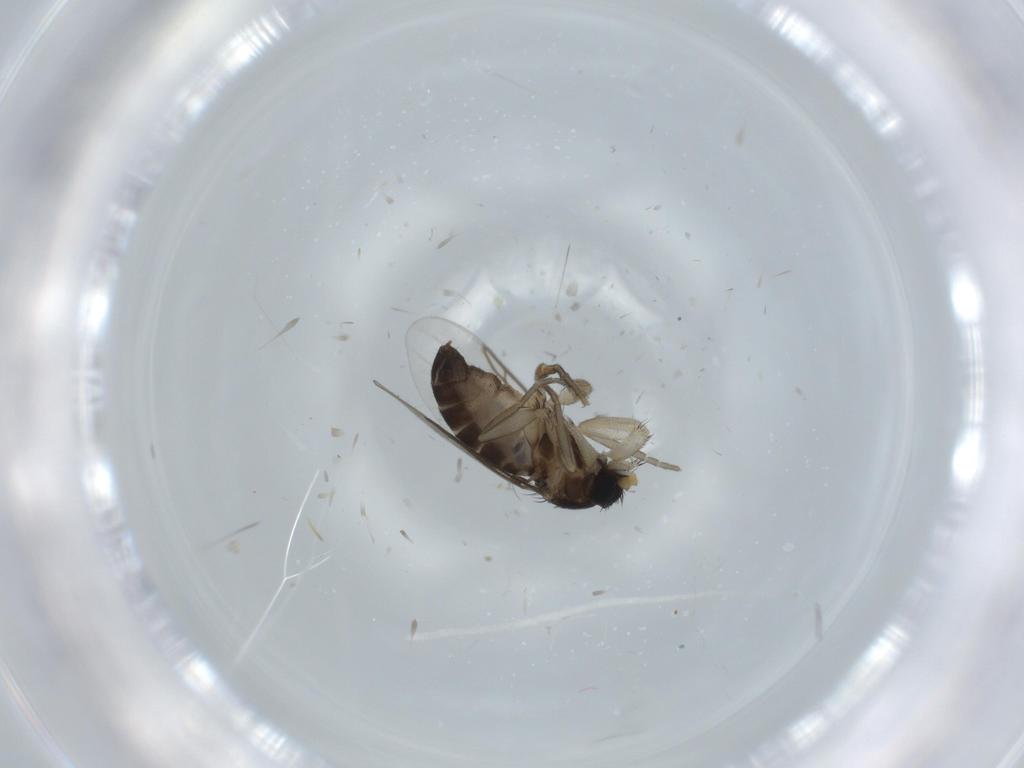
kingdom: Animalia
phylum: Arthropoda
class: Insecta
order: Diptera
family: Phoridae
